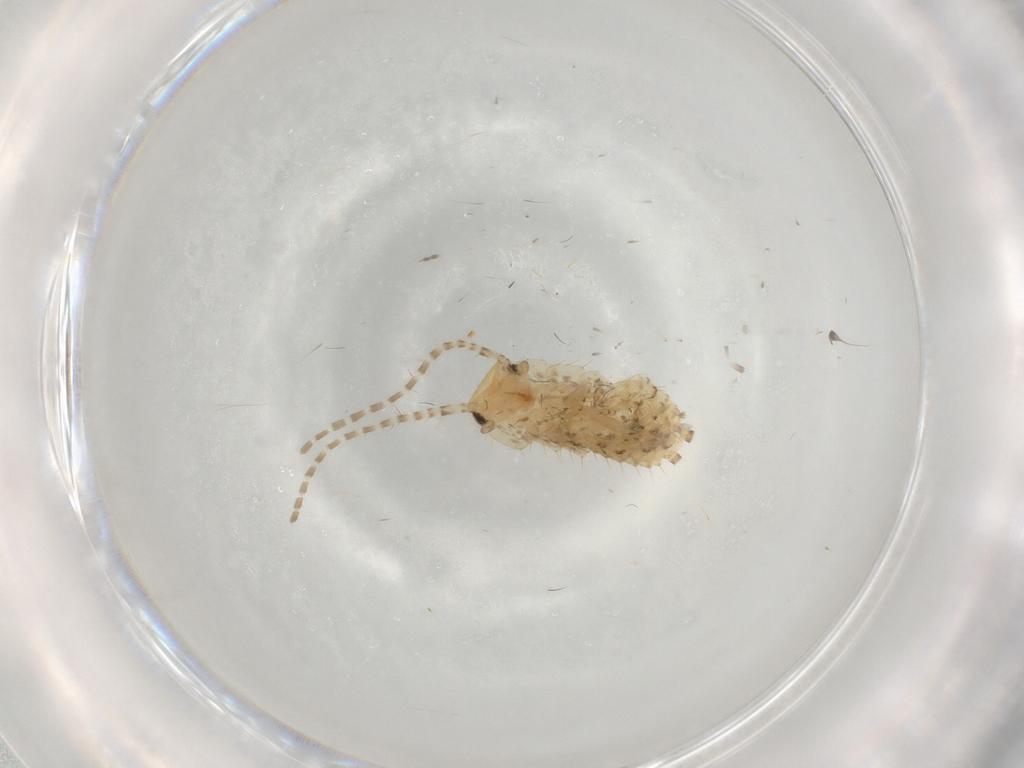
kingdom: Animalia
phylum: Arthropoda
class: Insecta
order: Blattodea
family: Ectobiidae
